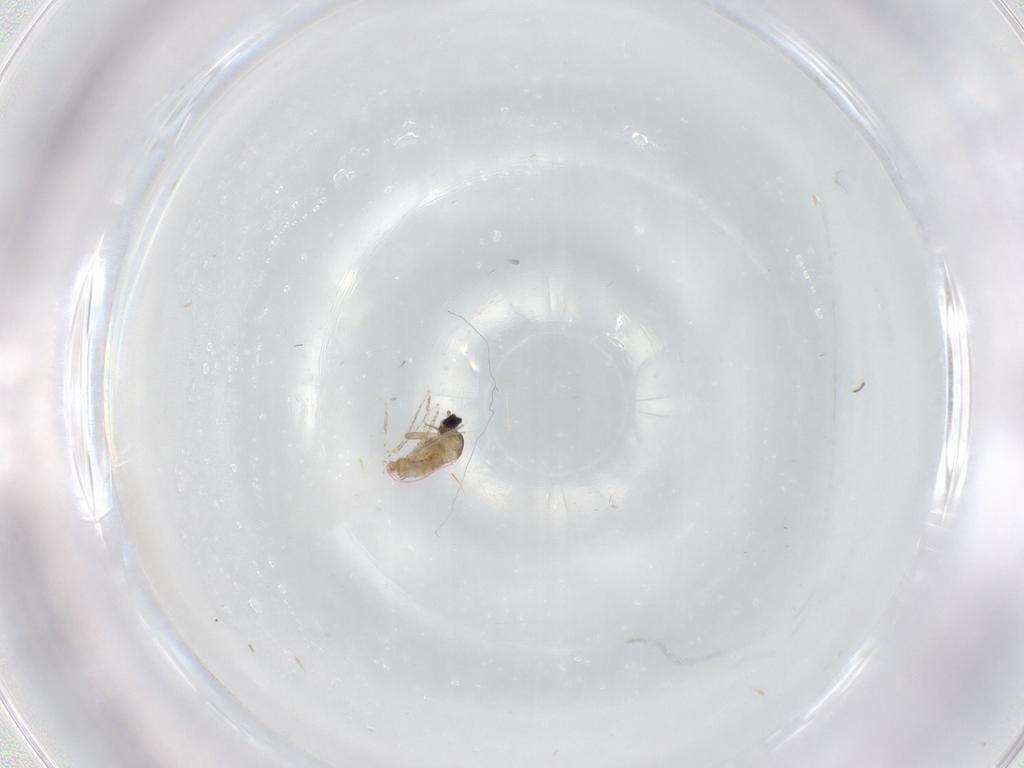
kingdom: Animalia
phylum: Arthropoda
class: Insecta
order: Diptera
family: Cecidomyiidae
